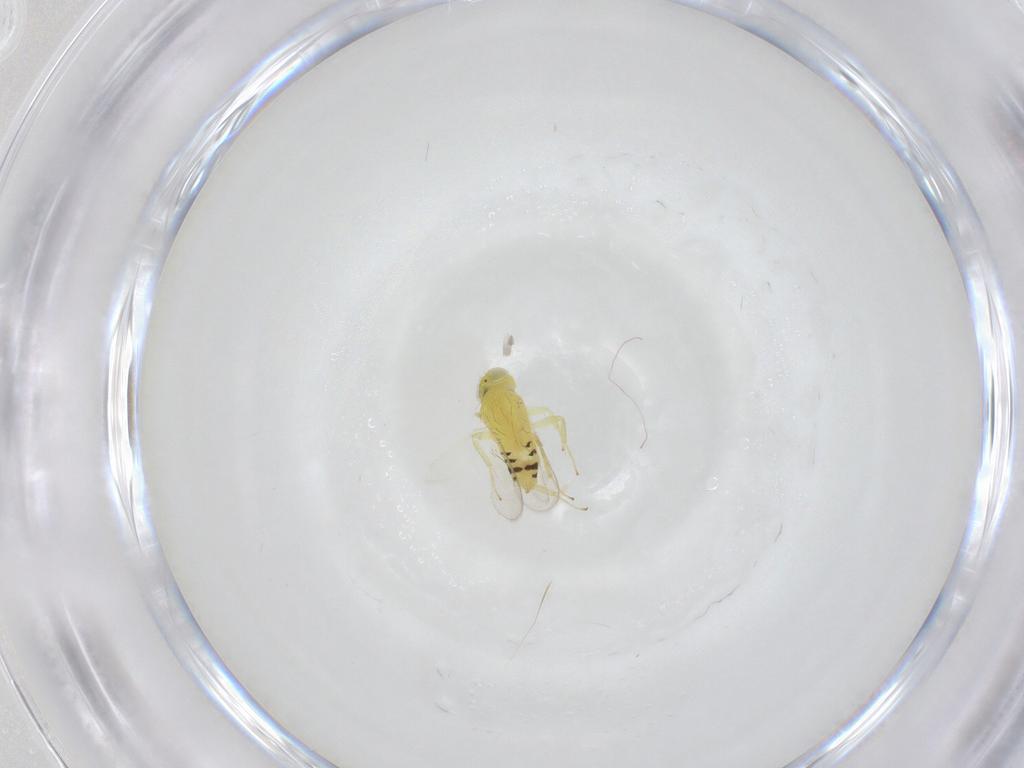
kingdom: Animalia
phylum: Arthropoda
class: Insecta
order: Hymenoptera
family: Aphelinidae
